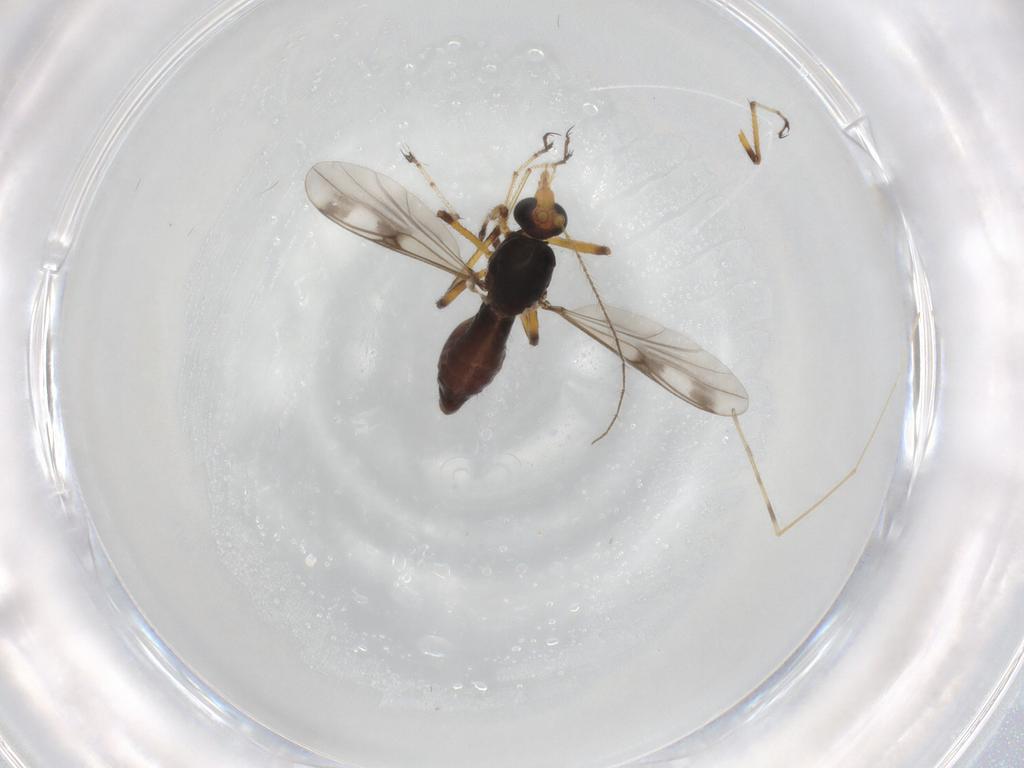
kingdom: Animalia
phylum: Arthropoda
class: Insecta
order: Diptera
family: Limoniidae
